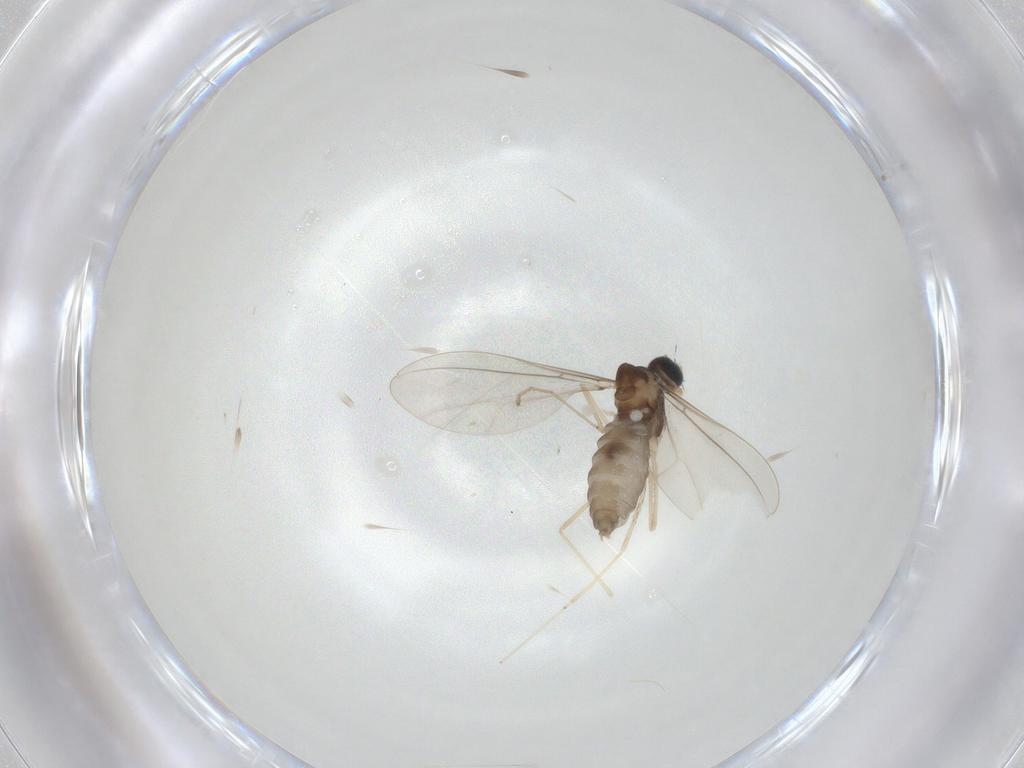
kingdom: Animalia
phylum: Arthropoda
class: Insecta
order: Diptera
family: Cecidomyiidae
